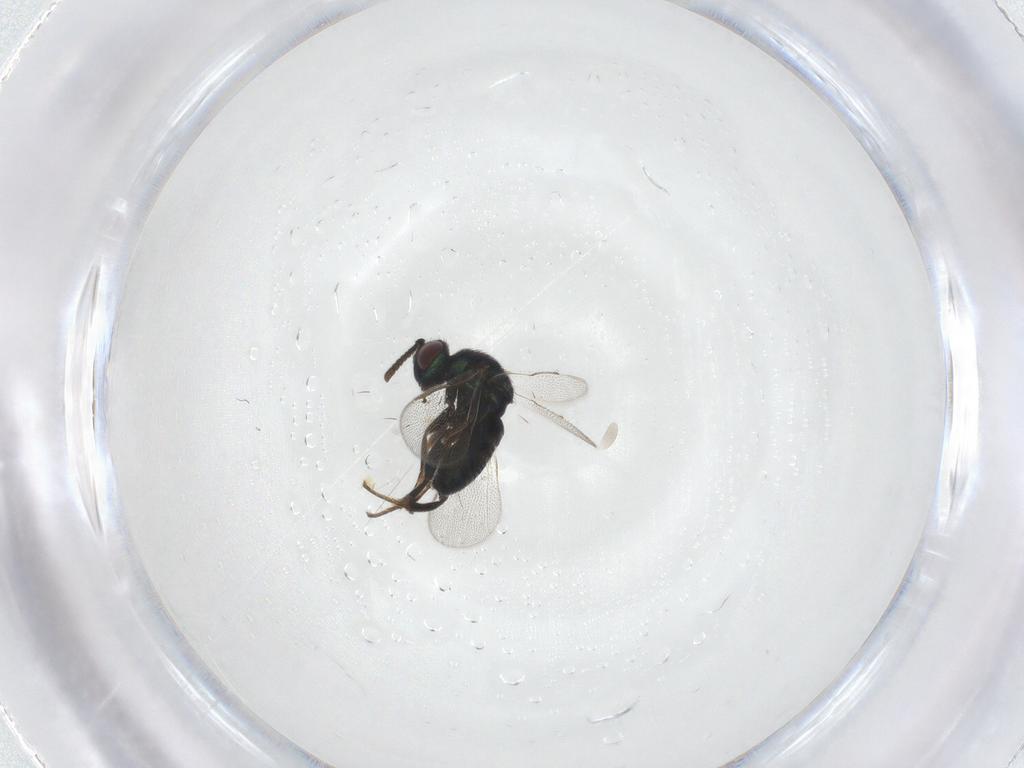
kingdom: Animalia
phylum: Arthropoda
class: Insecta
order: Hymenoptera
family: Ormyridae
